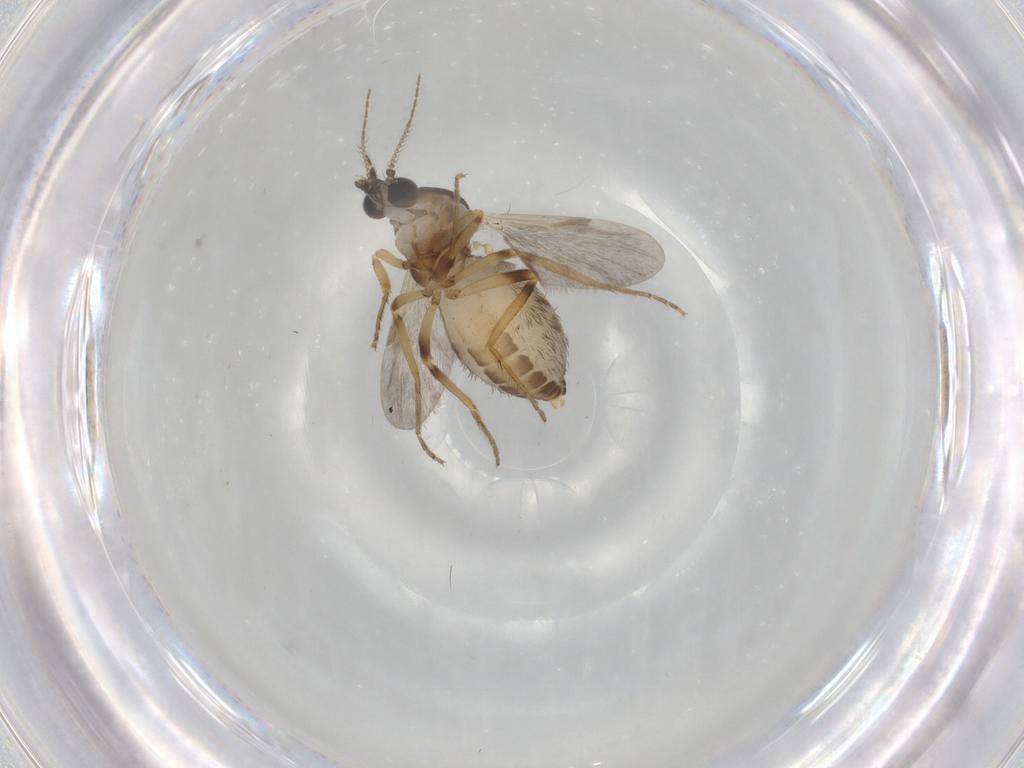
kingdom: Animalia
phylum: Arthropoda
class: Insecta
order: Diptera
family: Ceratopogonidae
